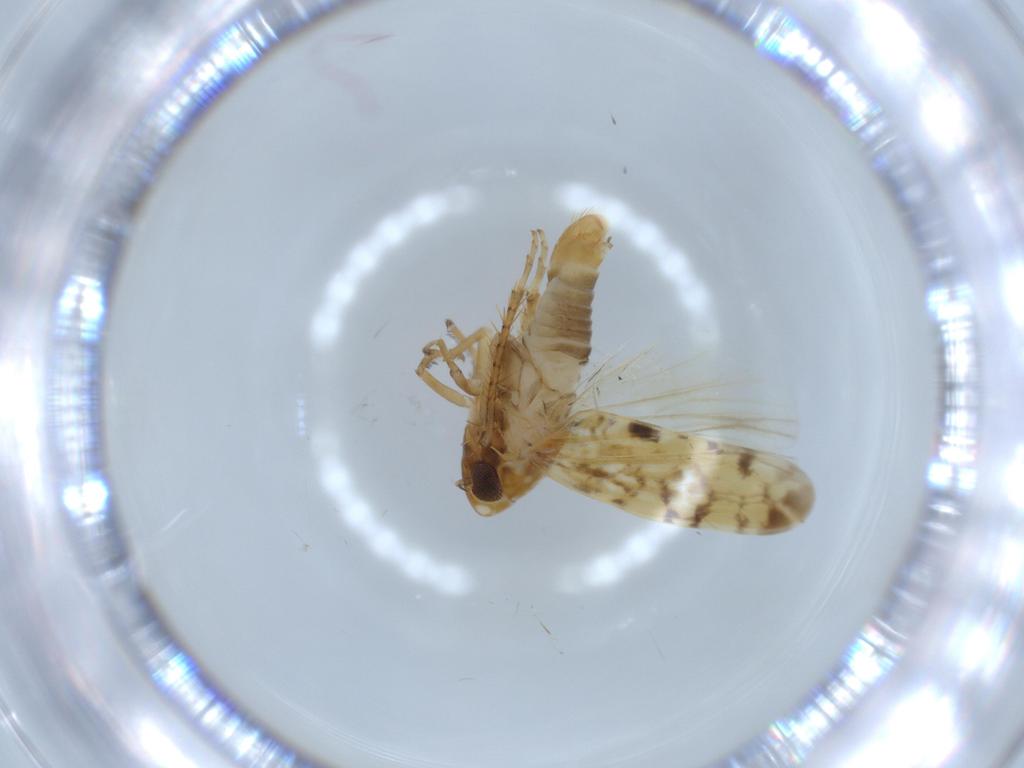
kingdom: Animalia
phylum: Arthropoda
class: Insecta
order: Hemiptera
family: Cicadellidae
